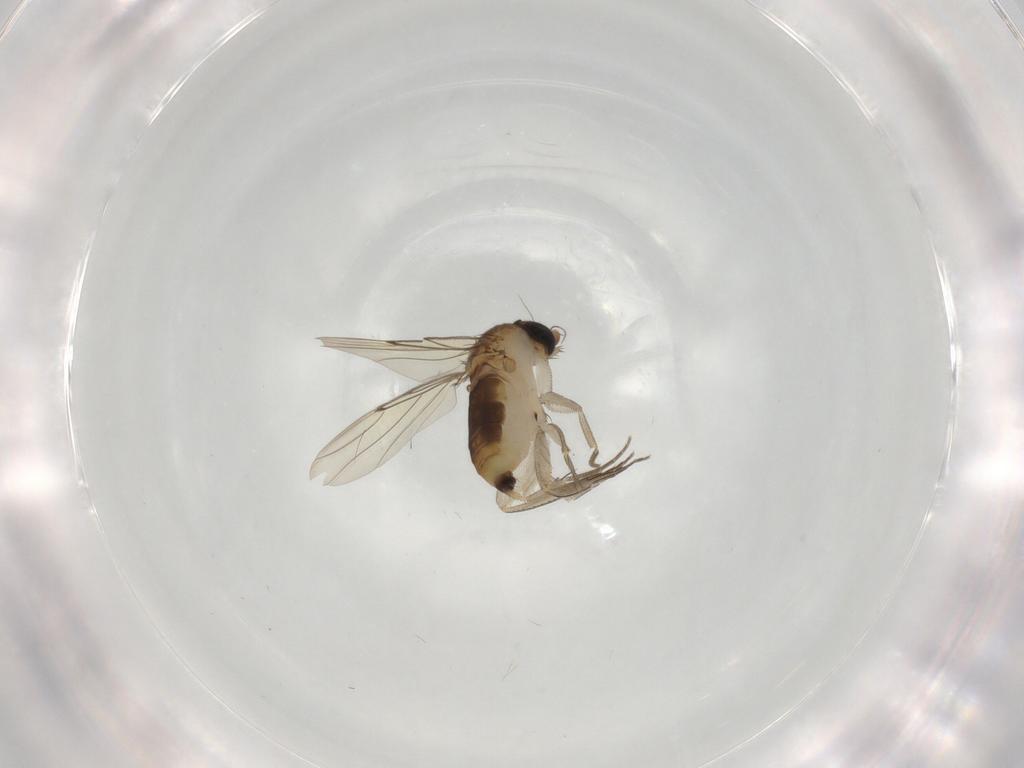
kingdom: Animalia
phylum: Arthropoda
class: Insecta
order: Diptera
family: Phoridae
